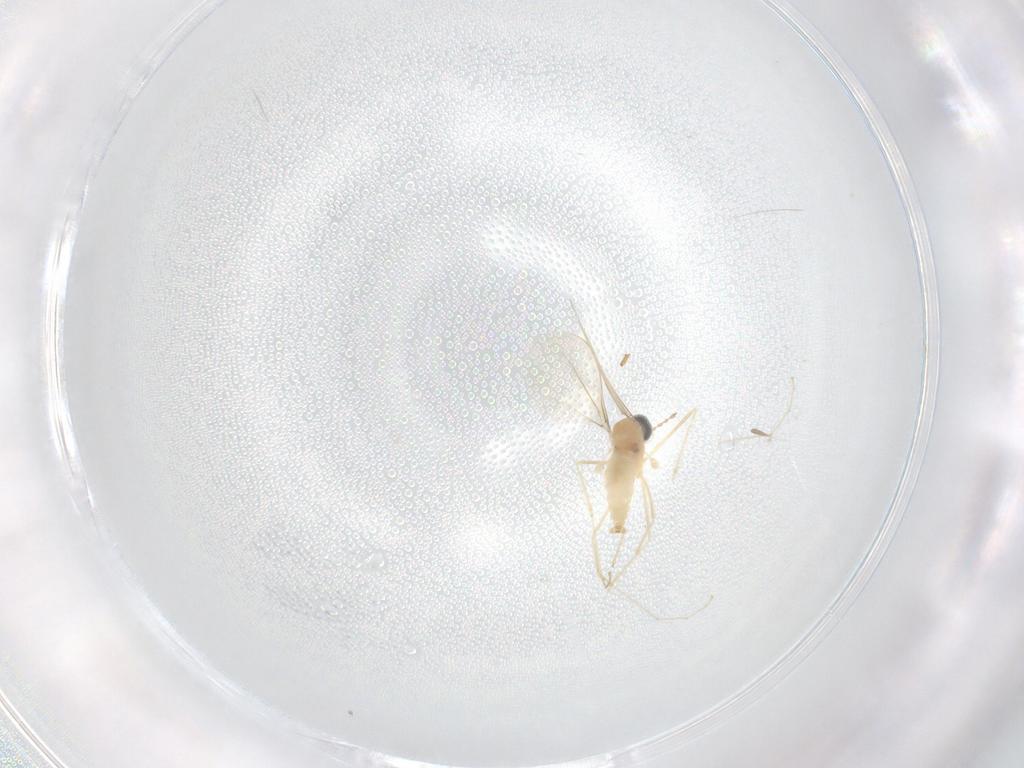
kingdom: Animalia
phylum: Arthropoda
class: Insecta
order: Diptera
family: Cecidomyiidae
